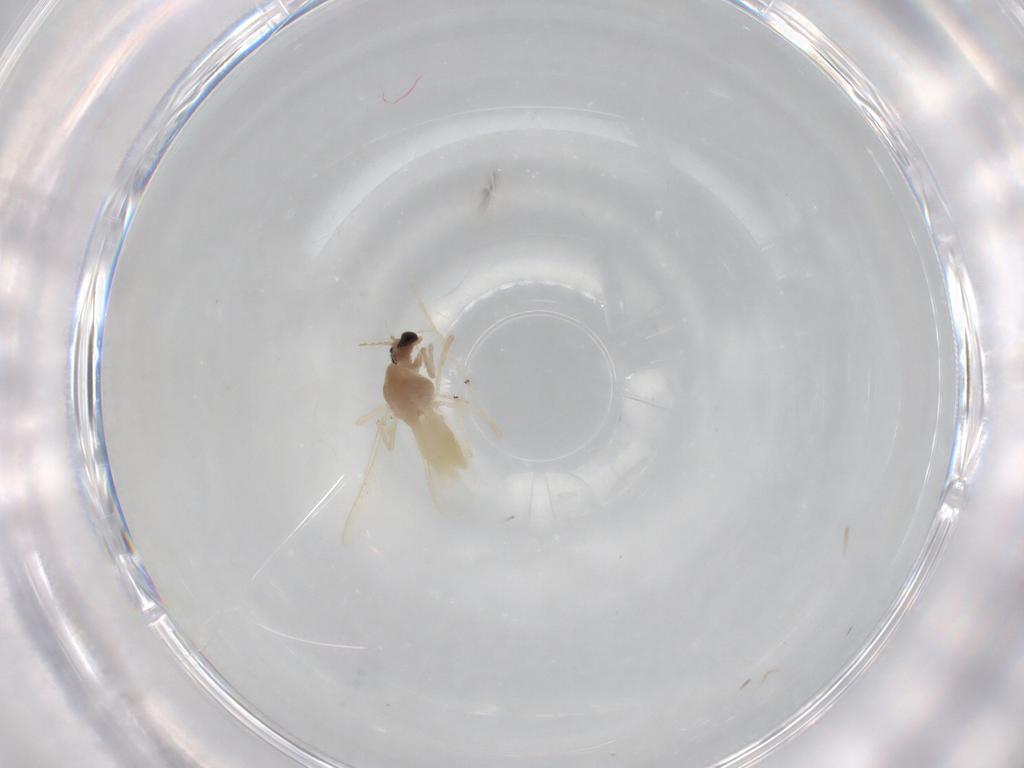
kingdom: Animalia
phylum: Arthropoda
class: Insecta
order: Diptera
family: Chironomidae
